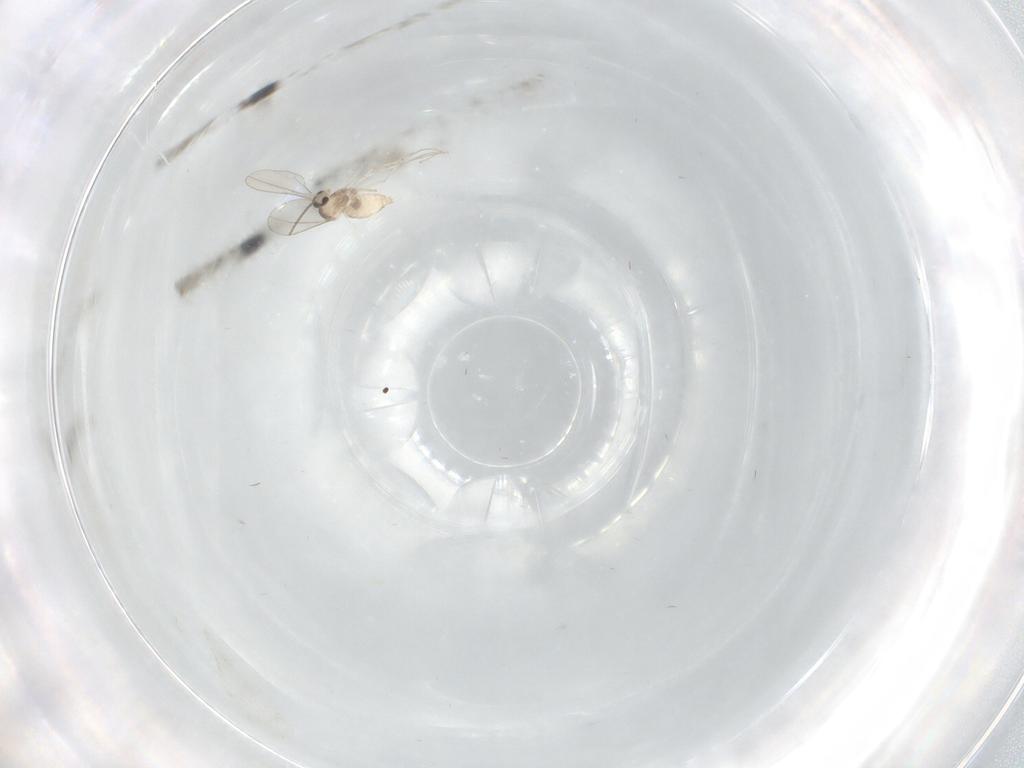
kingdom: Animalia
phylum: Arthropoda
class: Insecta
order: Diptera
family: Cecidomyiidae
